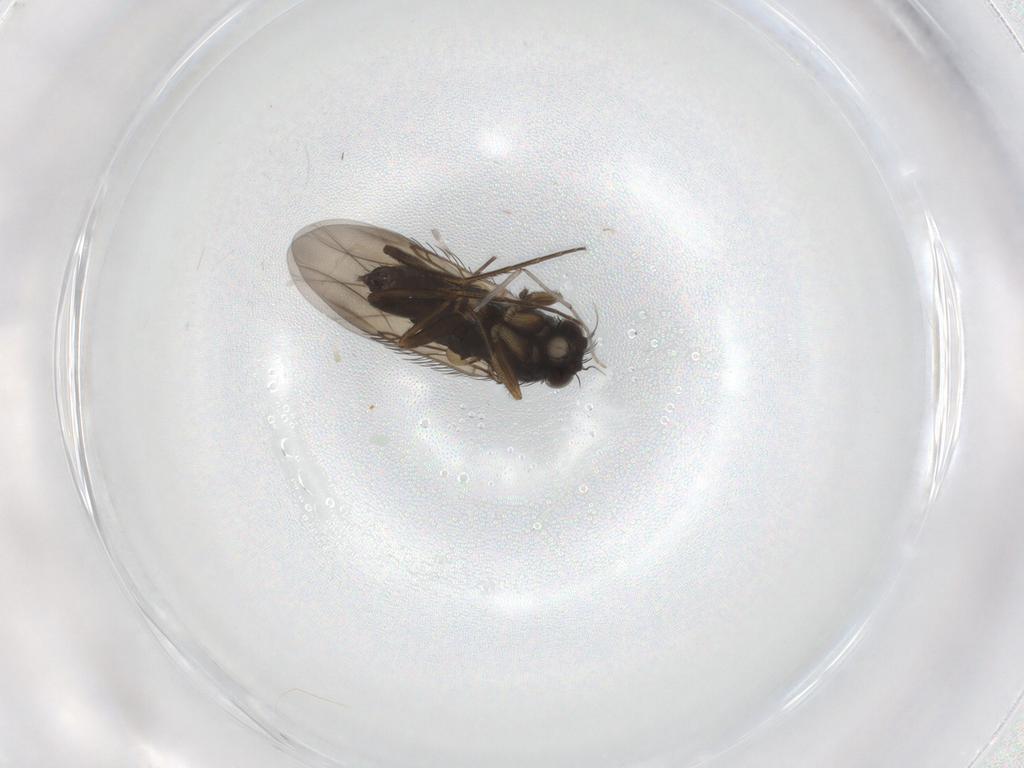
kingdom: Animalia
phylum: Arthropoda
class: Insecta
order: Diptera
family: Phoridae
